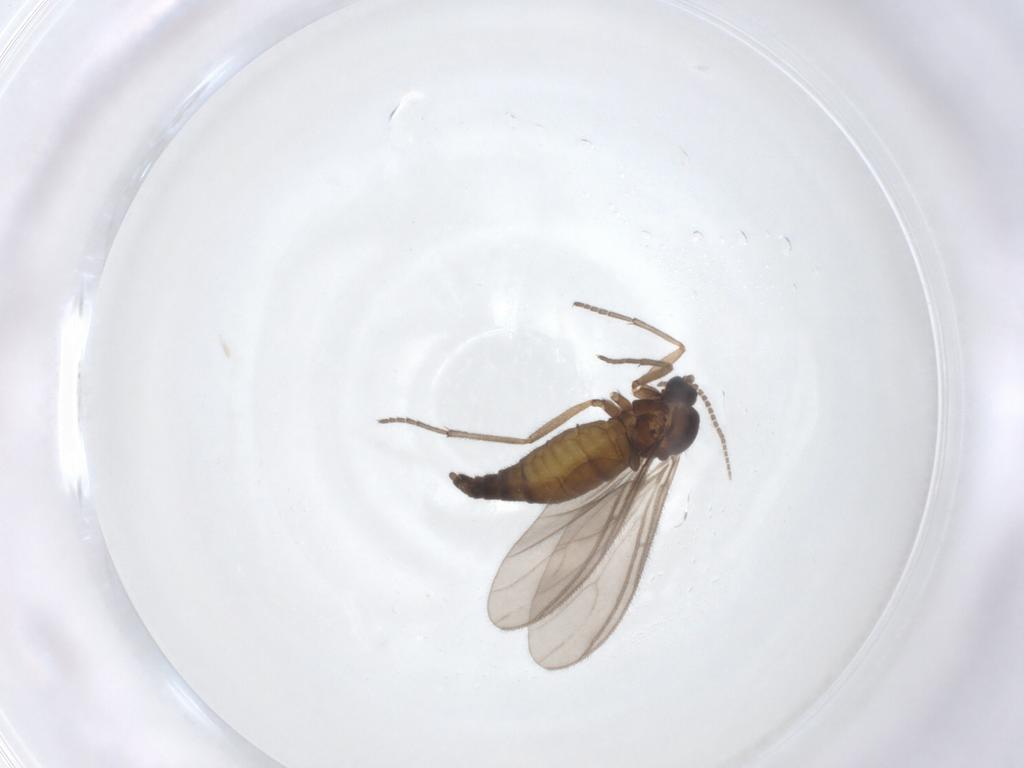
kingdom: Animalia
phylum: Arthropoda
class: Insecta
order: Diptera
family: Sciaridae
